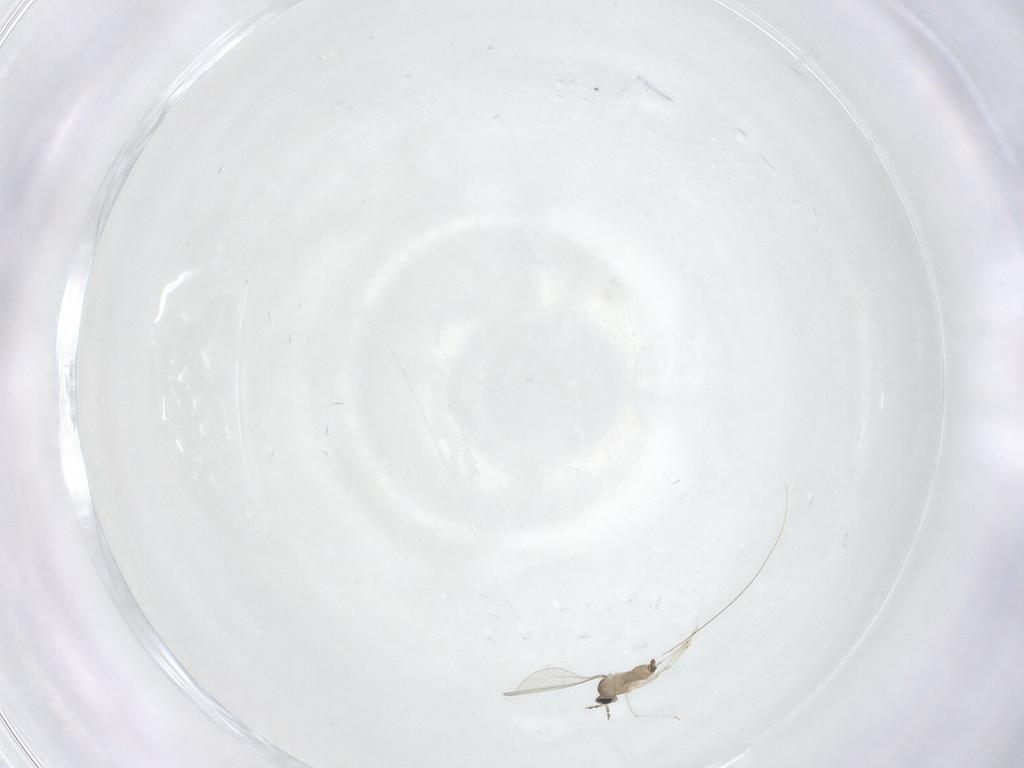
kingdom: Animalia
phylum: Arthropoda
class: Insecta
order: Diptera
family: Cecidomyiidae
